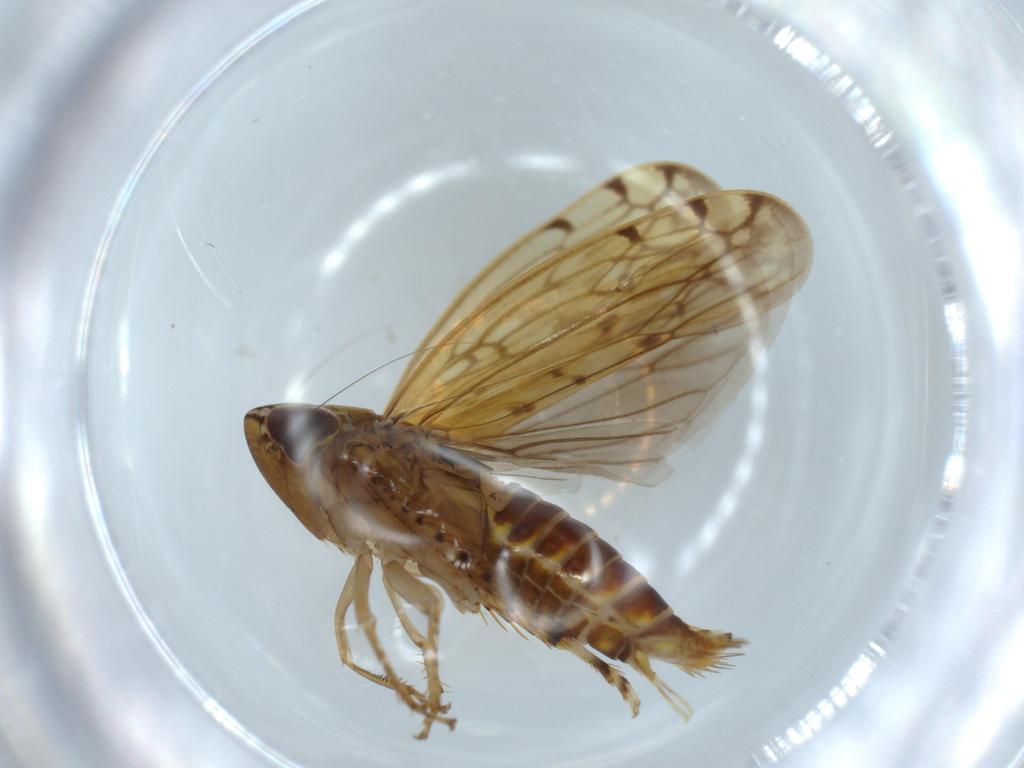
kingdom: Animalia
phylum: Arthropoda
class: Insecta
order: Hemiptera
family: Cicadellidae
